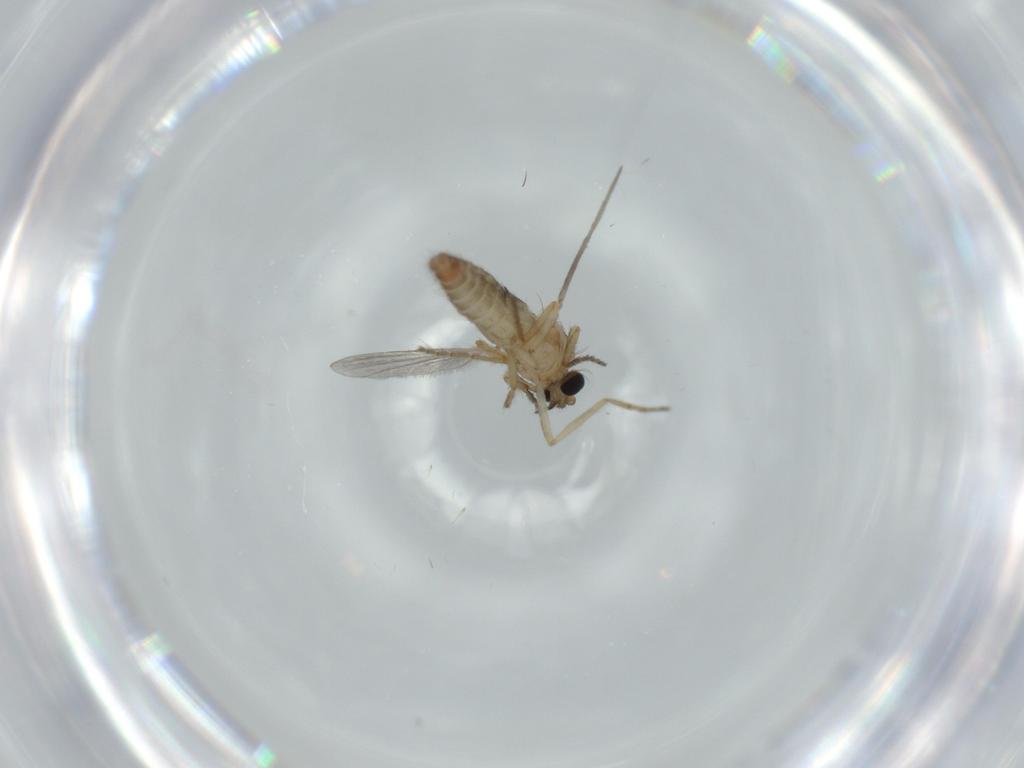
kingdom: Animalia
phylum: Arthropoda
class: Insecta
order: Diptera
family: Ceratopogonidae
